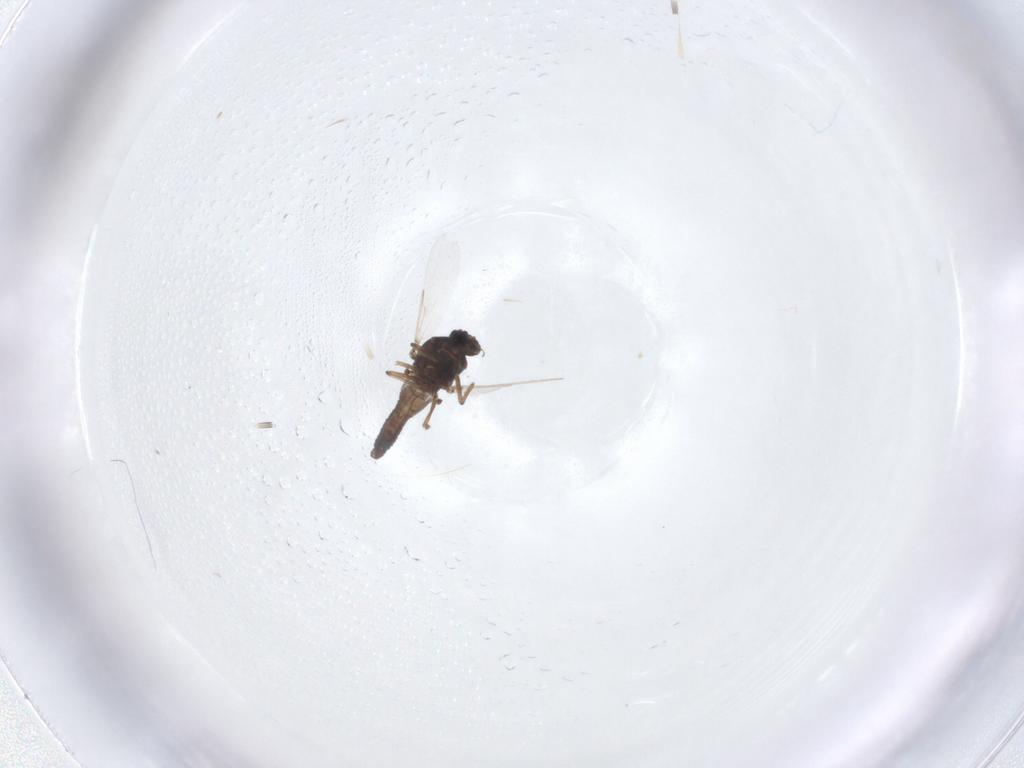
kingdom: Animalia
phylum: Arthropoda
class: Insecta
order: Diptera
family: Ceratopogonidae
